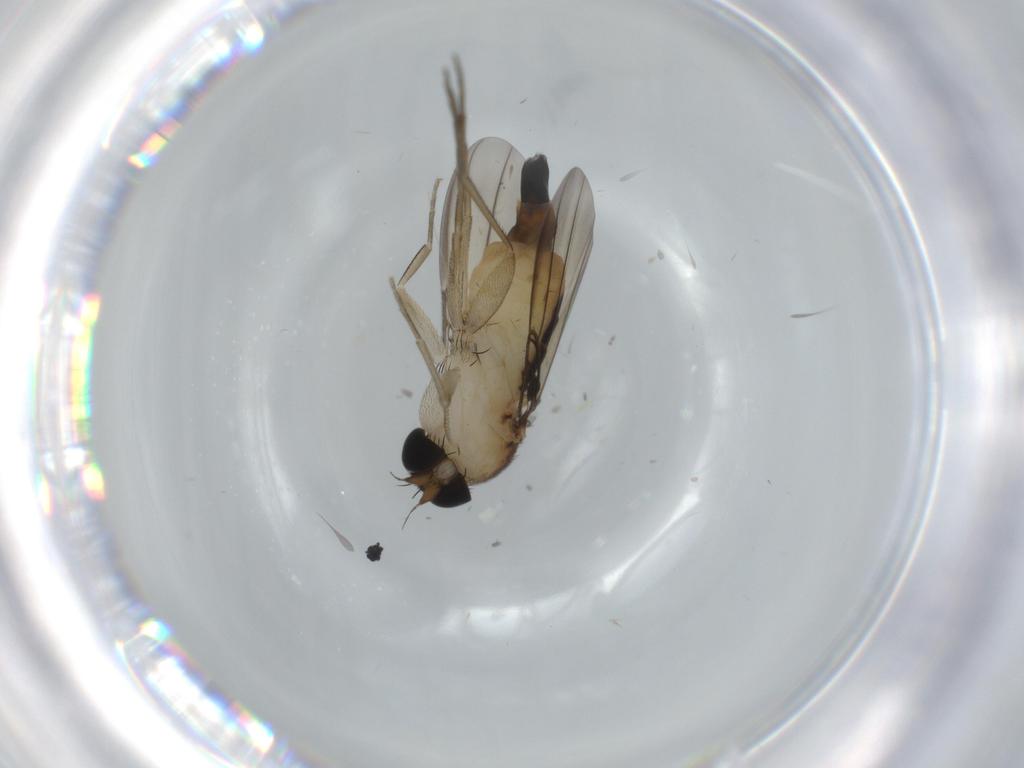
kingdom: Animalia
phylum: Arthropoda
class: Insecta
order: Diptera
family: Phoridae
